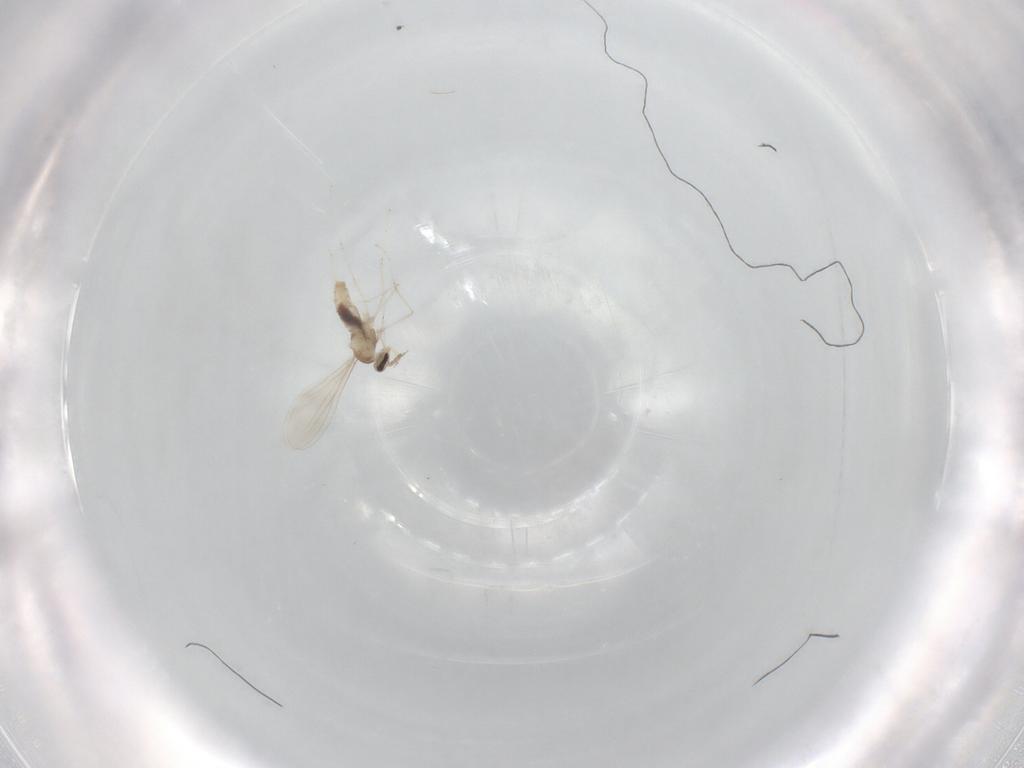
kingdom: Animalia
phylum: Arthropoda
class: Insecta
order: Diptera
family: Cecidomyiidae
